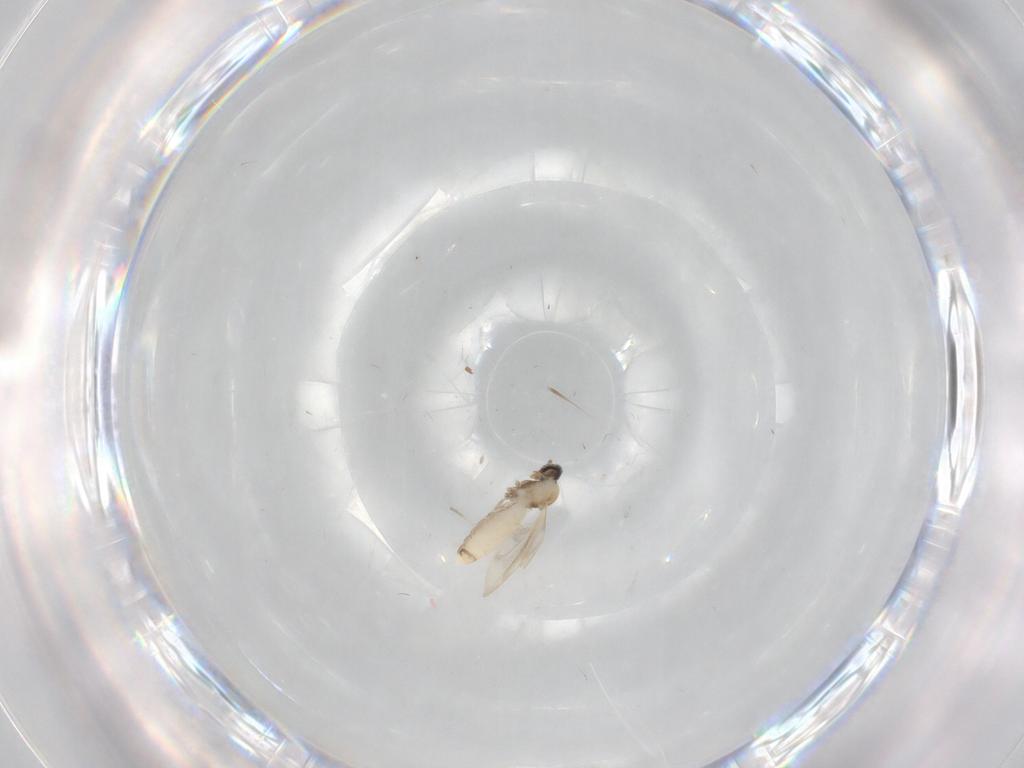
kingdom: Animalia
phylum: Arthropoda
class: Insecta
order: Diptera
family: Cecidomyiidae
